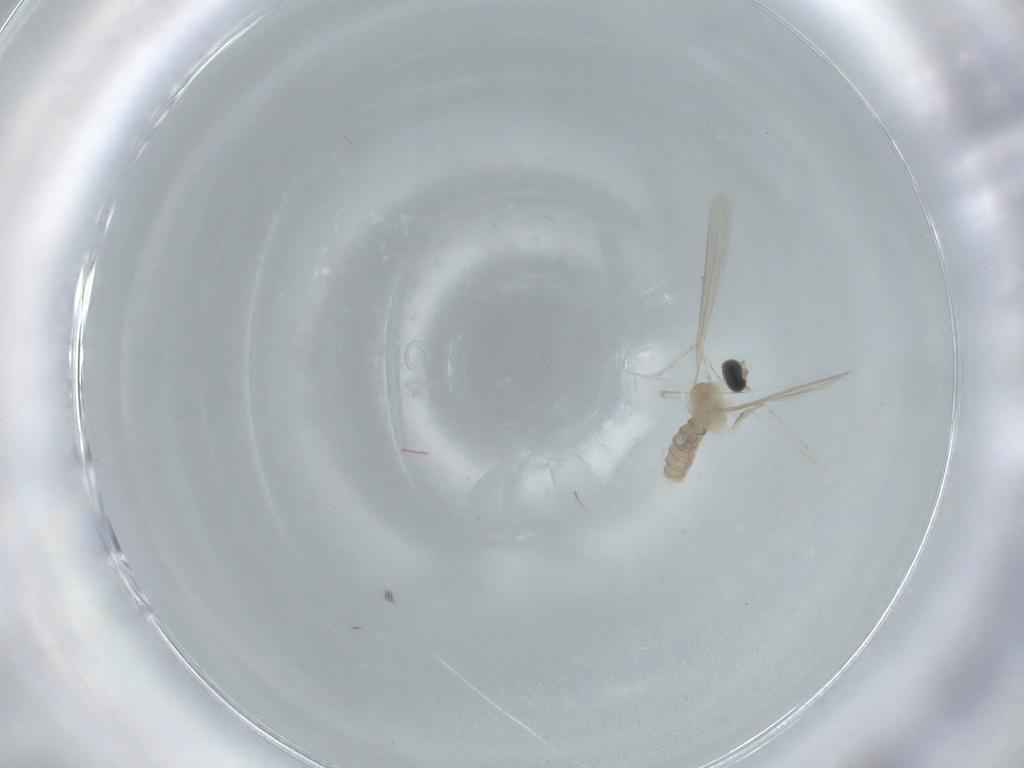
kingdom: Animalia
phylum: Arthropoda
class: Insecta
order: Diptera
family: Cecidomyiidae
